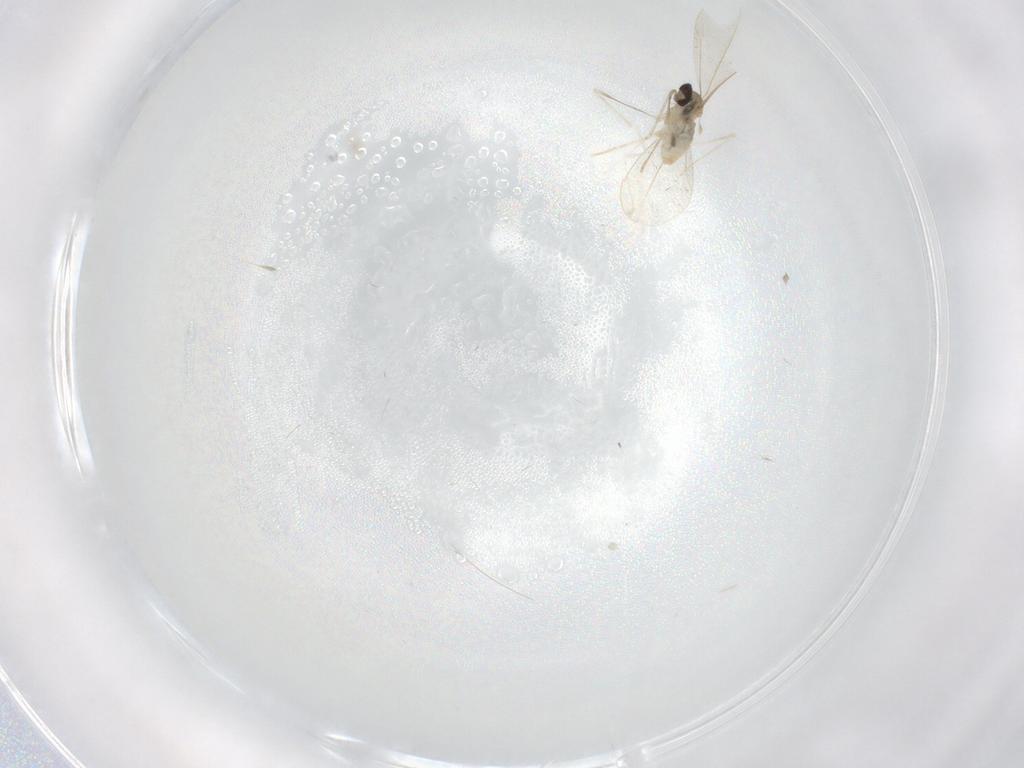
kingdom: Animalia
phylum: Arthropoda
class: Insecta
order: Diptera
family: Cecidomyiidae
